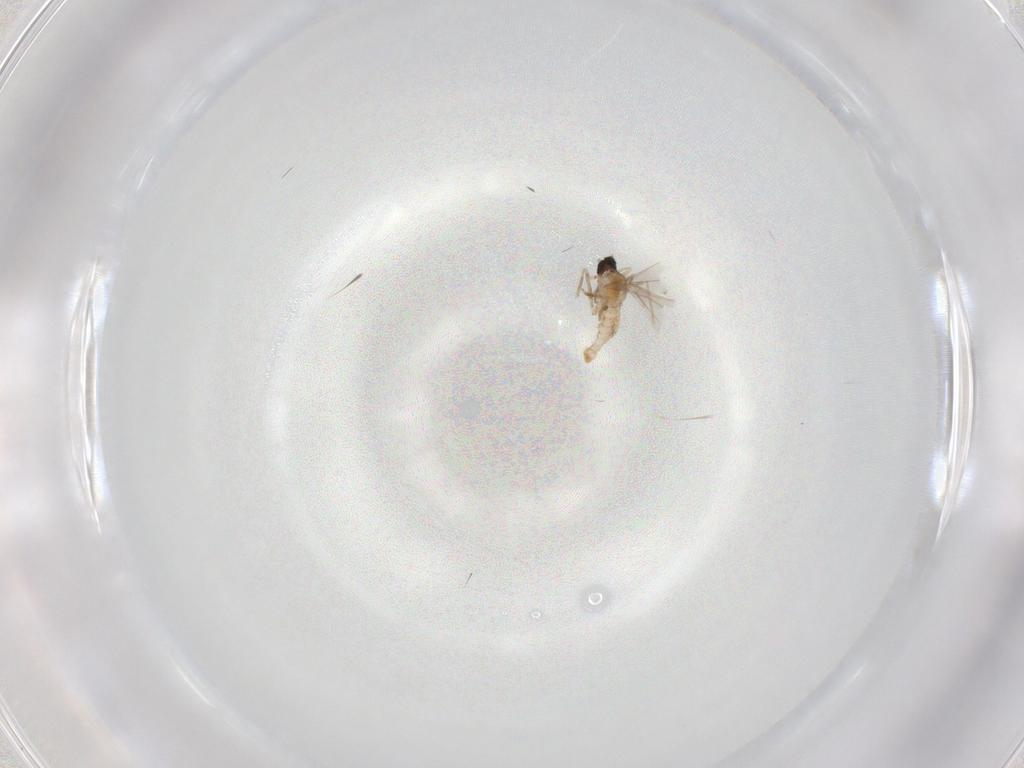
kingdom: Animalia
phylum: Arthropoda
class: Insecta
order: Diptera
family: Cecidomyiidae
